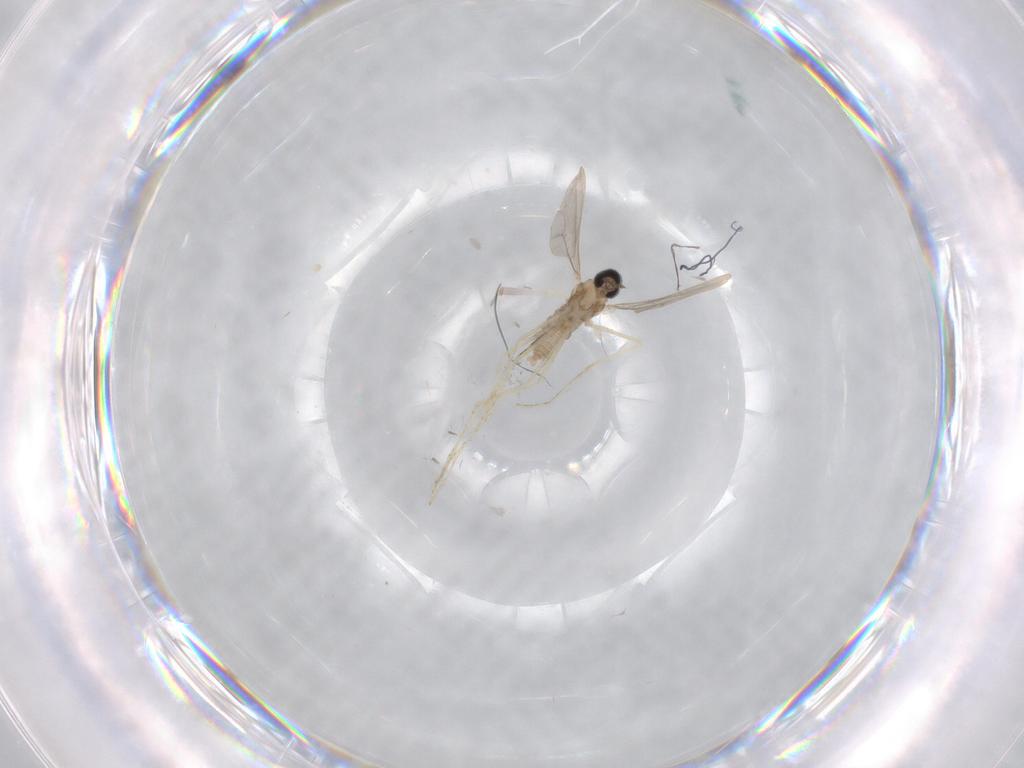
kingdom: Animalia
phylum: Arthropoda
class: Insecta
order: Diptera
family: Cecidomyiidae
